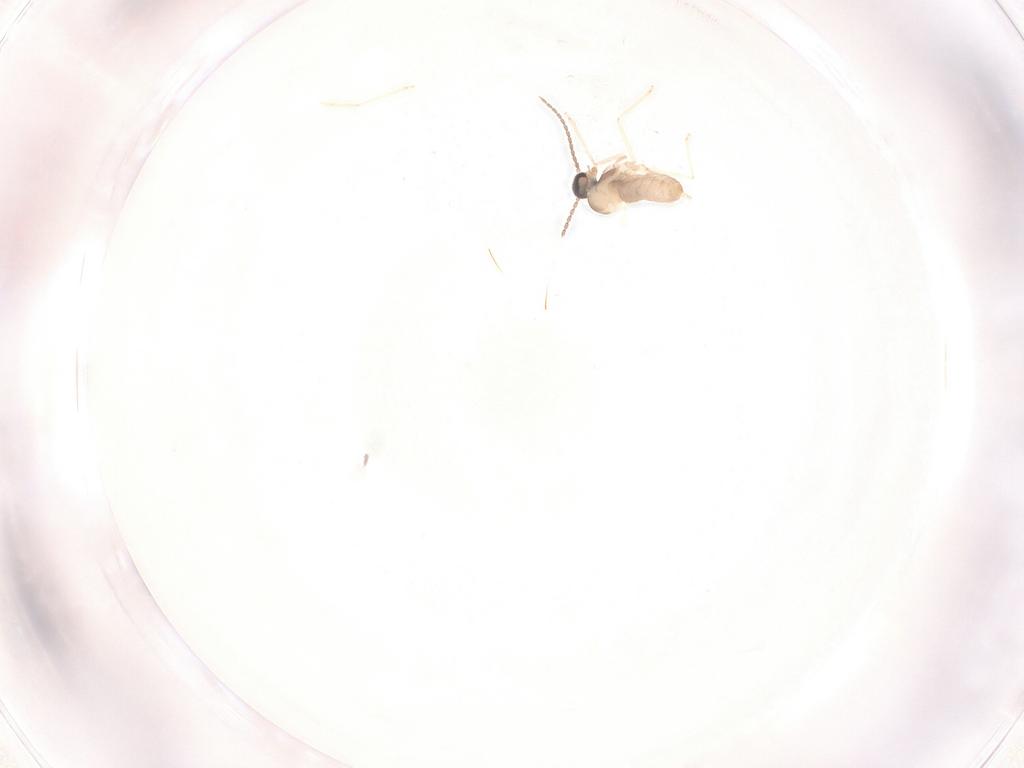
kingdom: Animalia
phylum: Arthropoda
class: Insecta
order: Diptera
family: Cecidomyiidae
